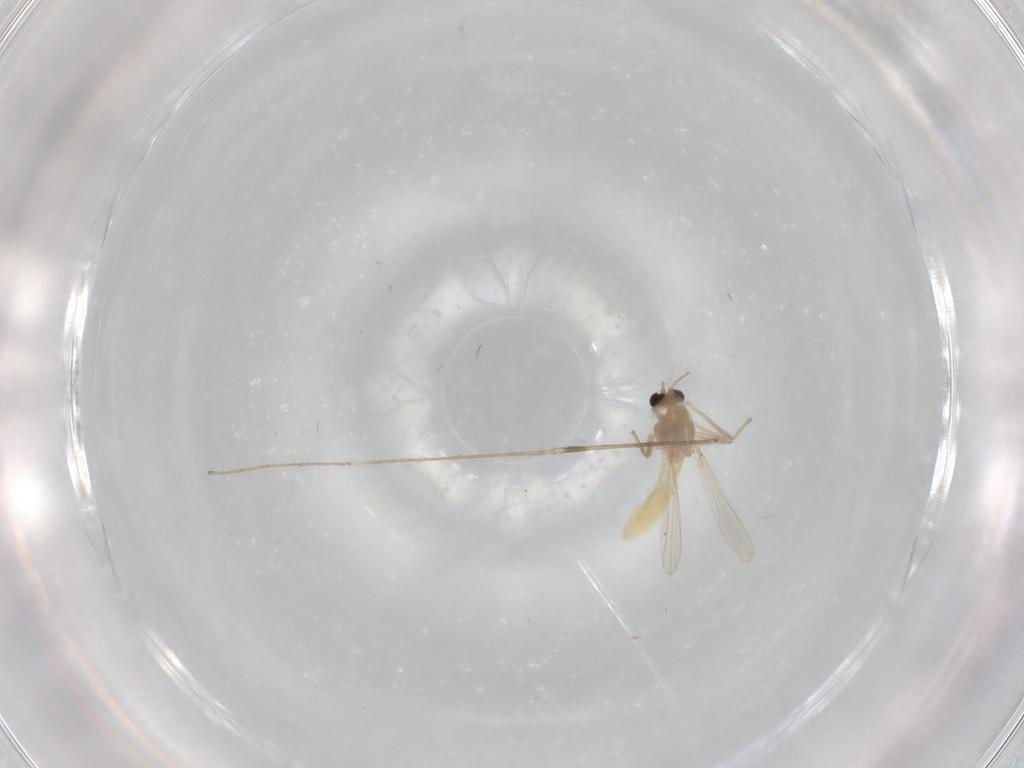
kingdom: Animalia
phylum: Arthropoda
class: Insecta
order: Diptera
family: Chironomidae
